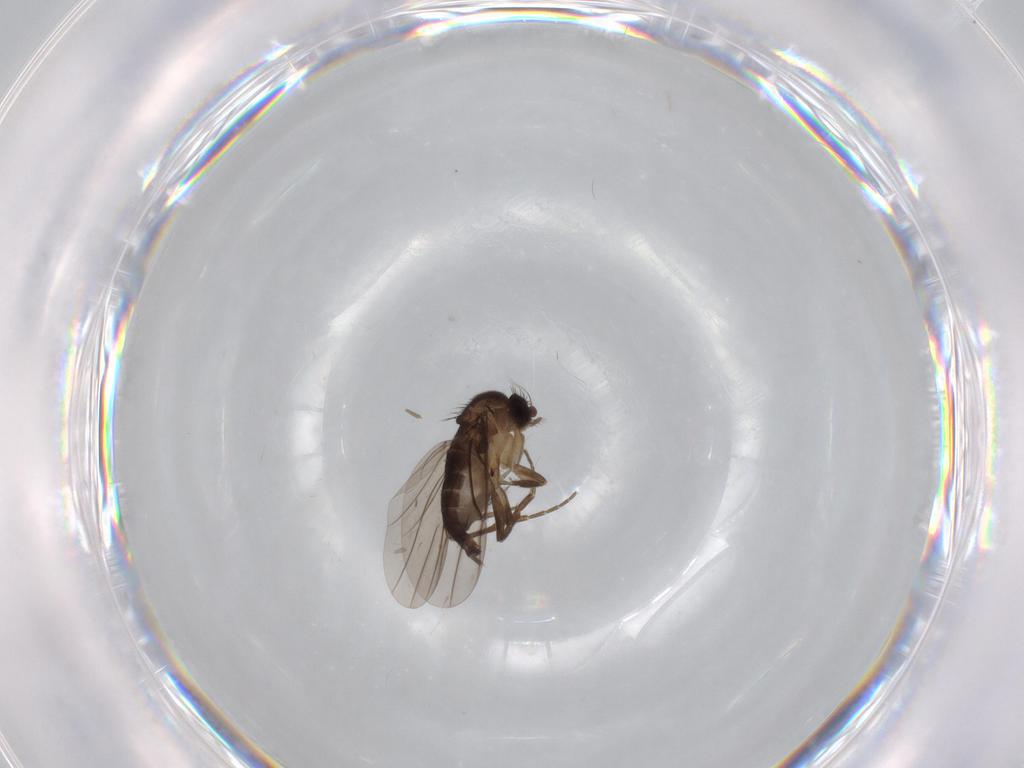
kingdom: Animalia
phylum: Arthropoda
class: Insecta
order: Diptera
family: Phoridae
